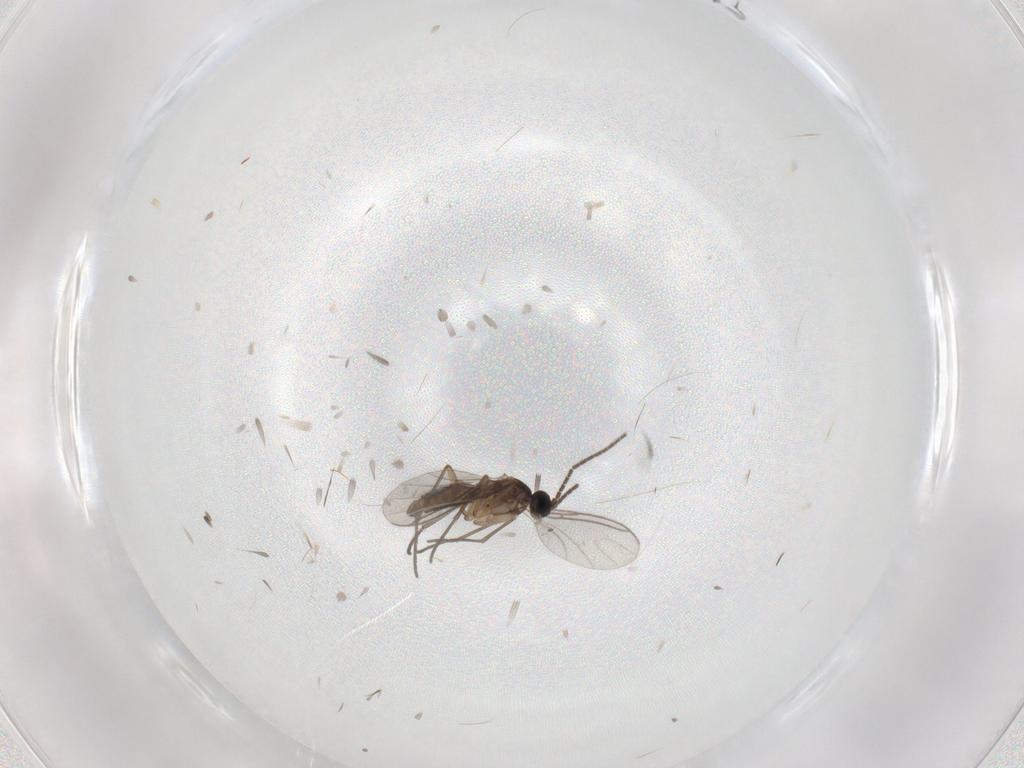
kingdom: Animalia
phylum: Arthropoda
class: Insecta
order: Diptera
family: Sciaridae
